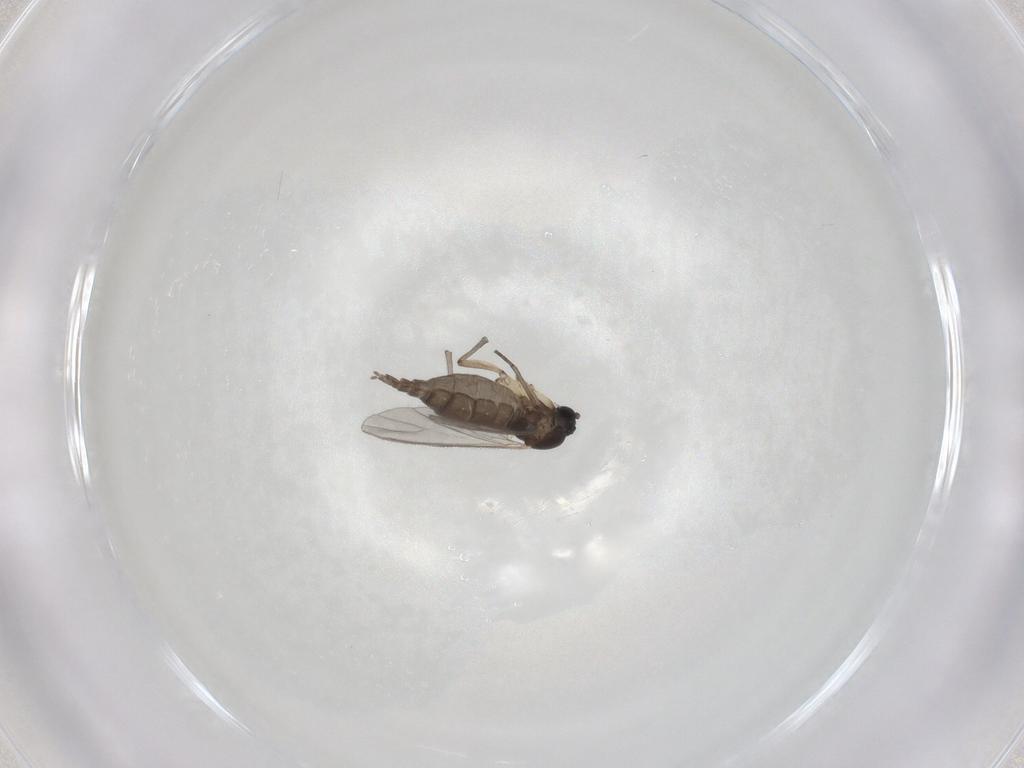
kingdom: Animalia
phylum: Arthropoda
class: Insecta
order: Diptera
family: Sciaridae
